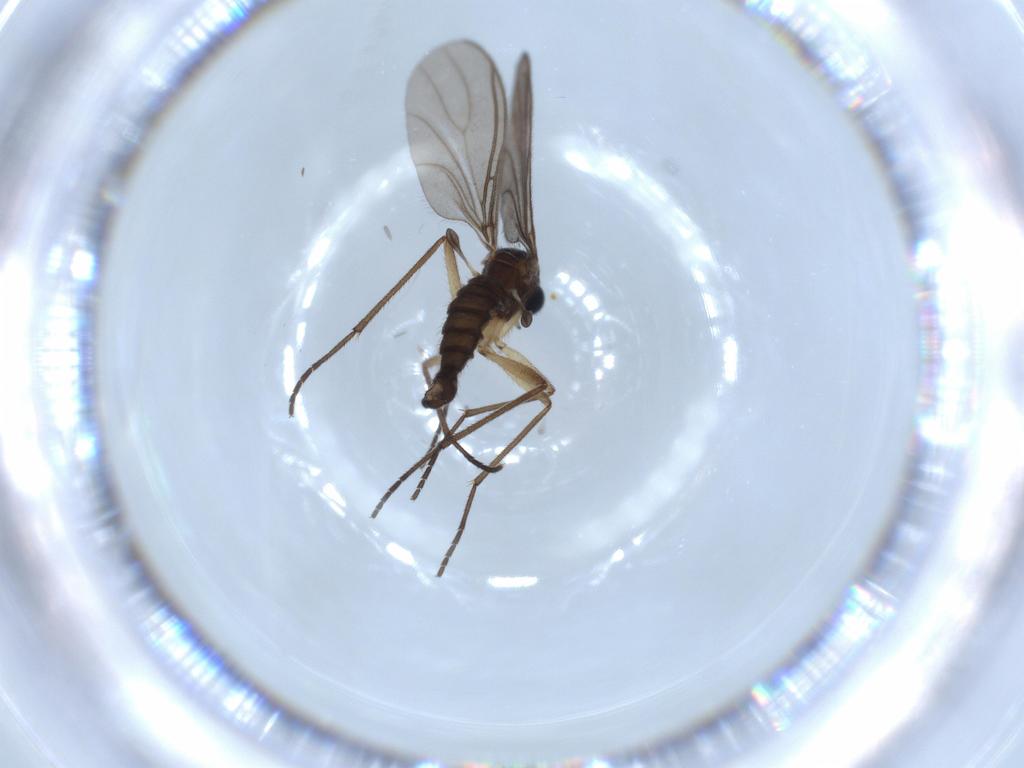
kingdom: Animalia
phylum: Arthropoda
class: Insecta
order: Diptera
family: Sciaridae
